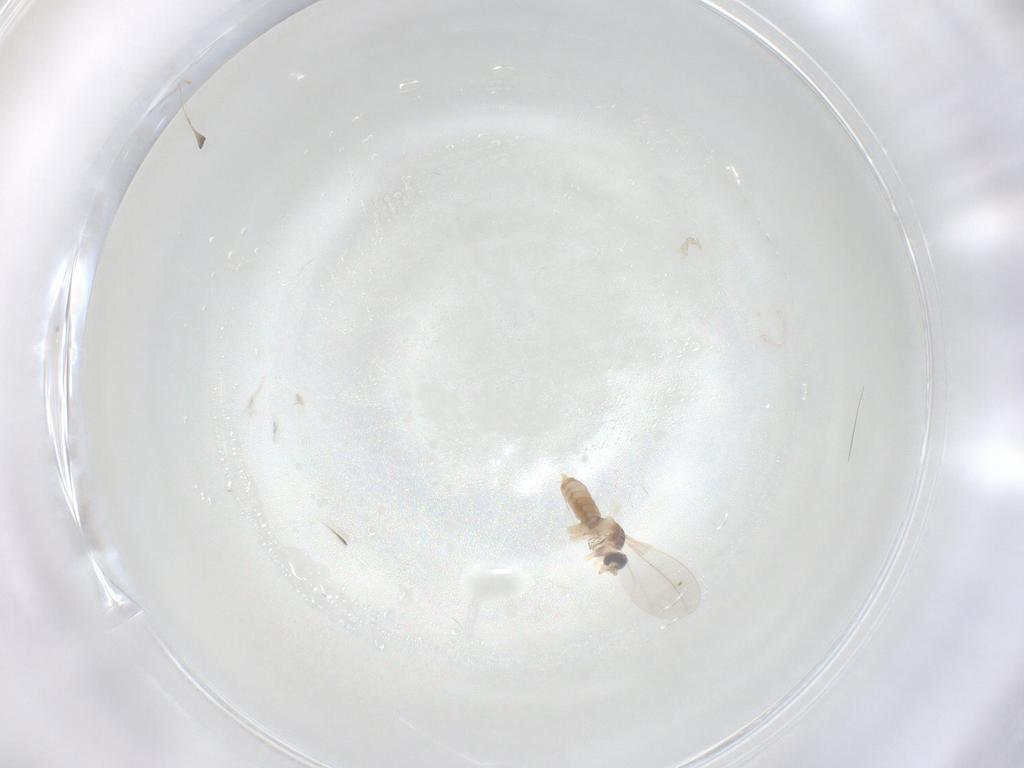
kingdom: Animalia
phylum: Arthropoda
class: Insecta
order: Diptera
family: Cecidomyiidae
